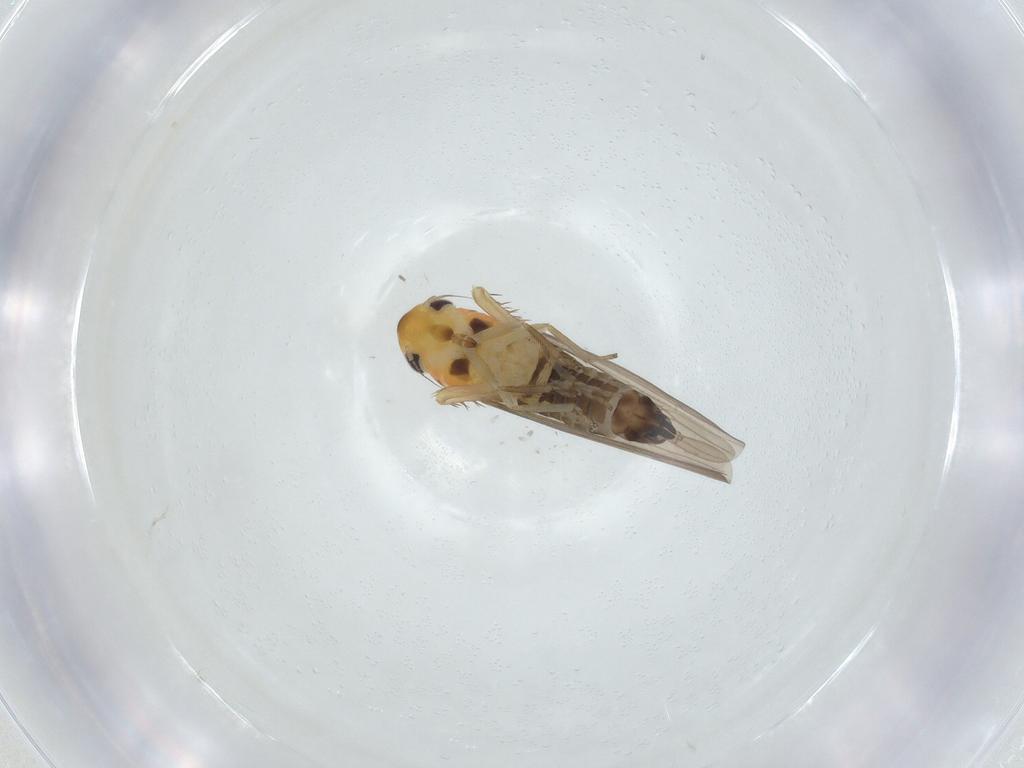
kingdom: Animalia
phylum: Arthropoda
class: Insecta
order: Hemiptera
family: Cicadellidae
